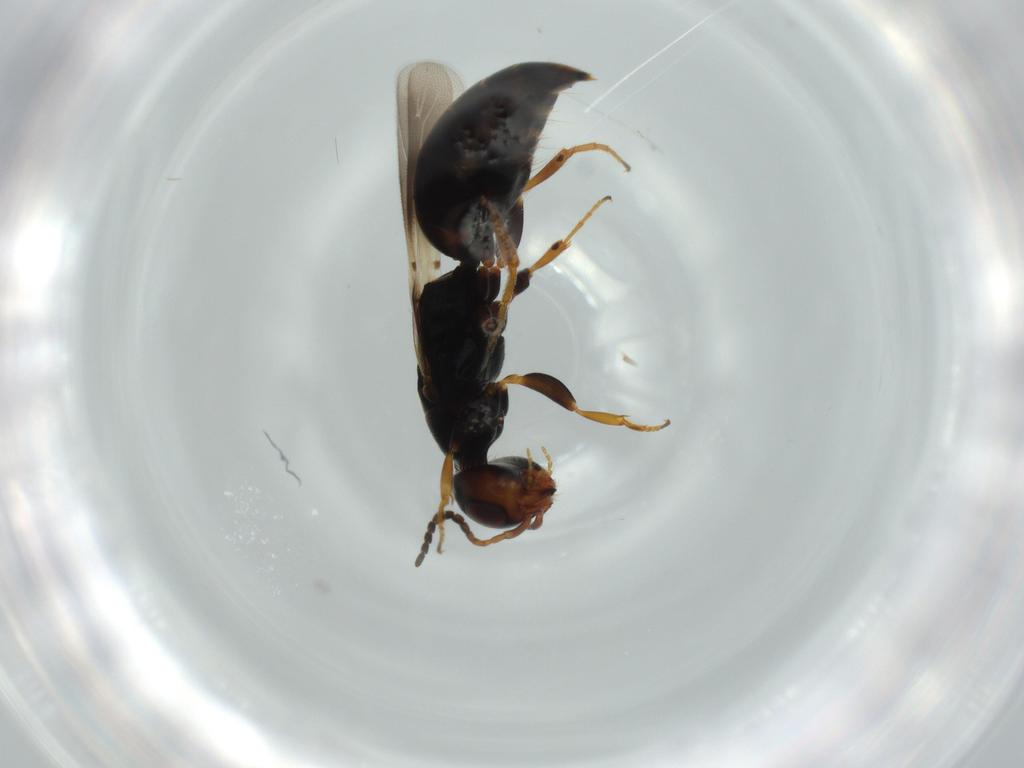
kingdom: Animalia
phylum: Arthropoda
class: Insecta
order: Hymenoptera
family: Bethylidae
